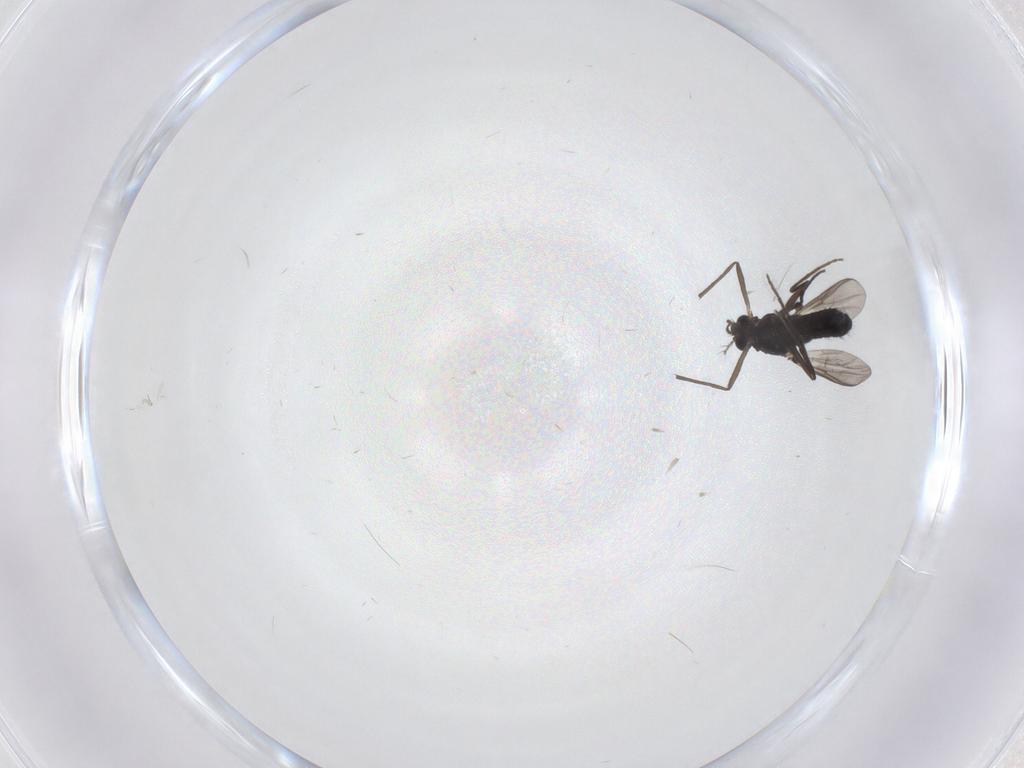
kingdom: Animalia
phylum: Arthropoda
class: Insecta
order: Diptera
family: Chironomidae
